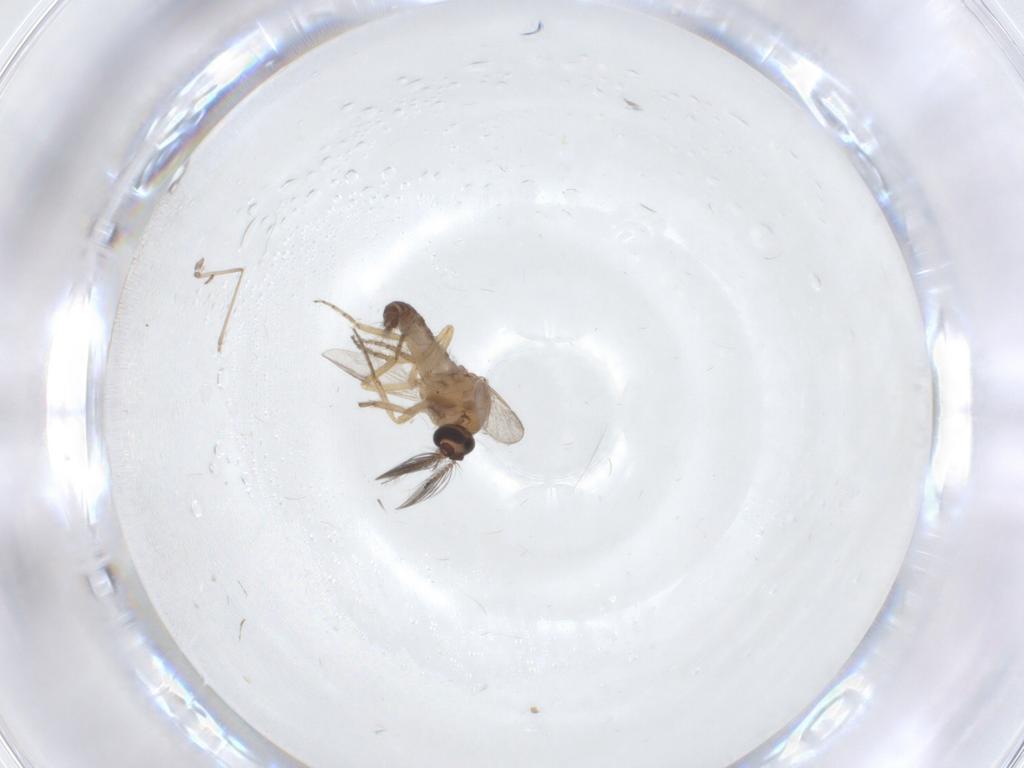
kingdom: Animalia
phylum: Arthropoda
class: Insecta
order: Diptera
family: Ceratopogonidae
